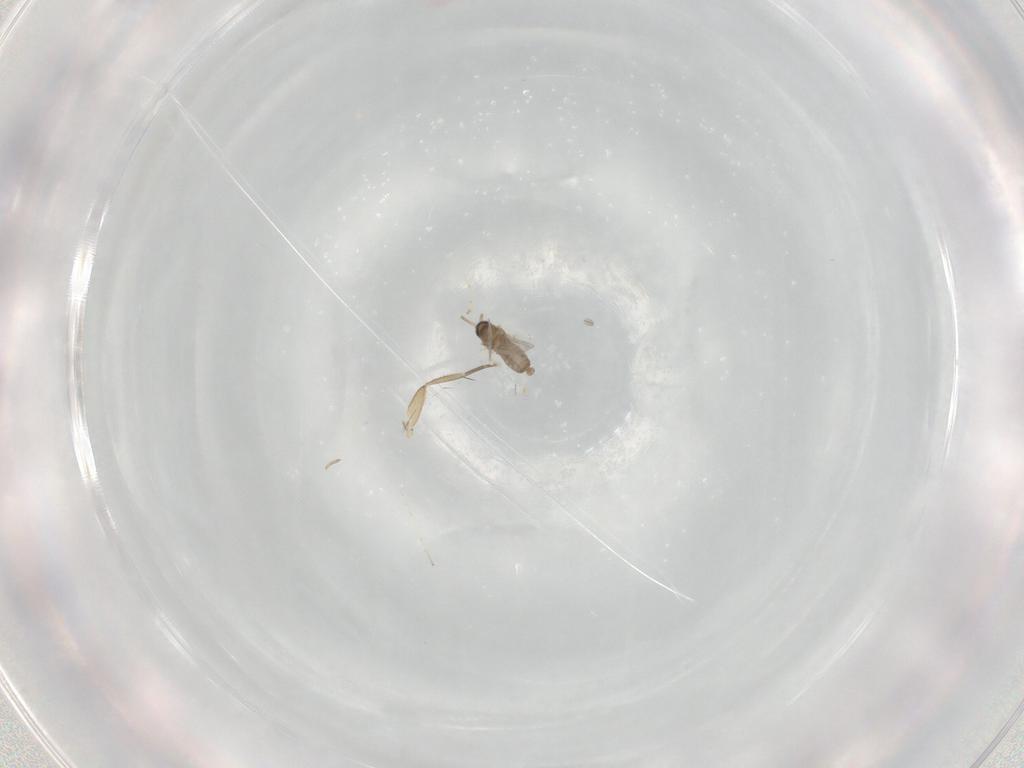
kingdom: Animalia
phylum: Arthropoda
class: Insecta
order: Diptera
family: Phoridae
